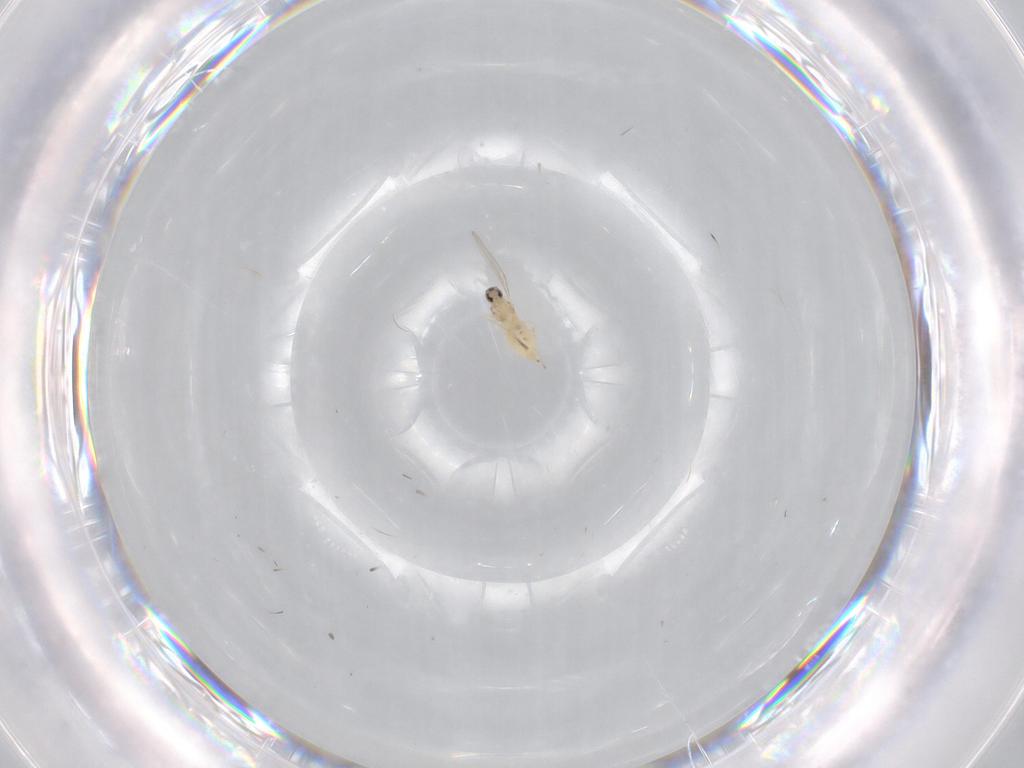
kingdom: Animalia
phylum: Arthropoda
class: Insecta
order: Diptera
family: Cecidomyiidae
